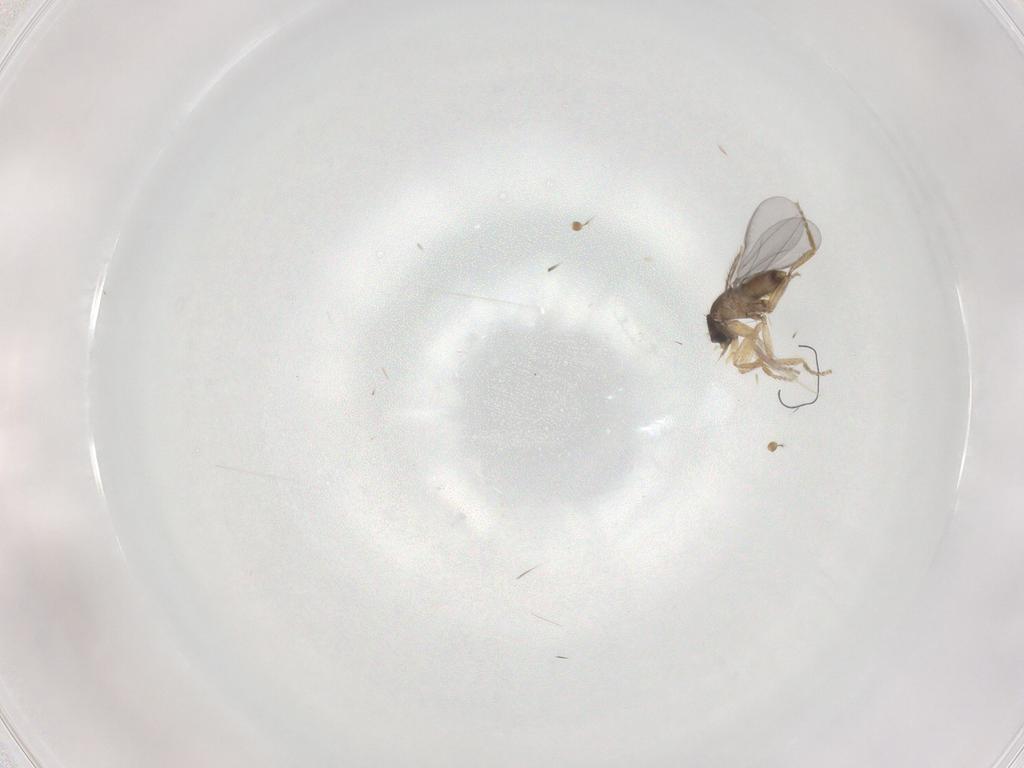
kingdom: Animalia
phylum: Arthropoda
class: Insecta
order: Diptera
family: Phoridae
